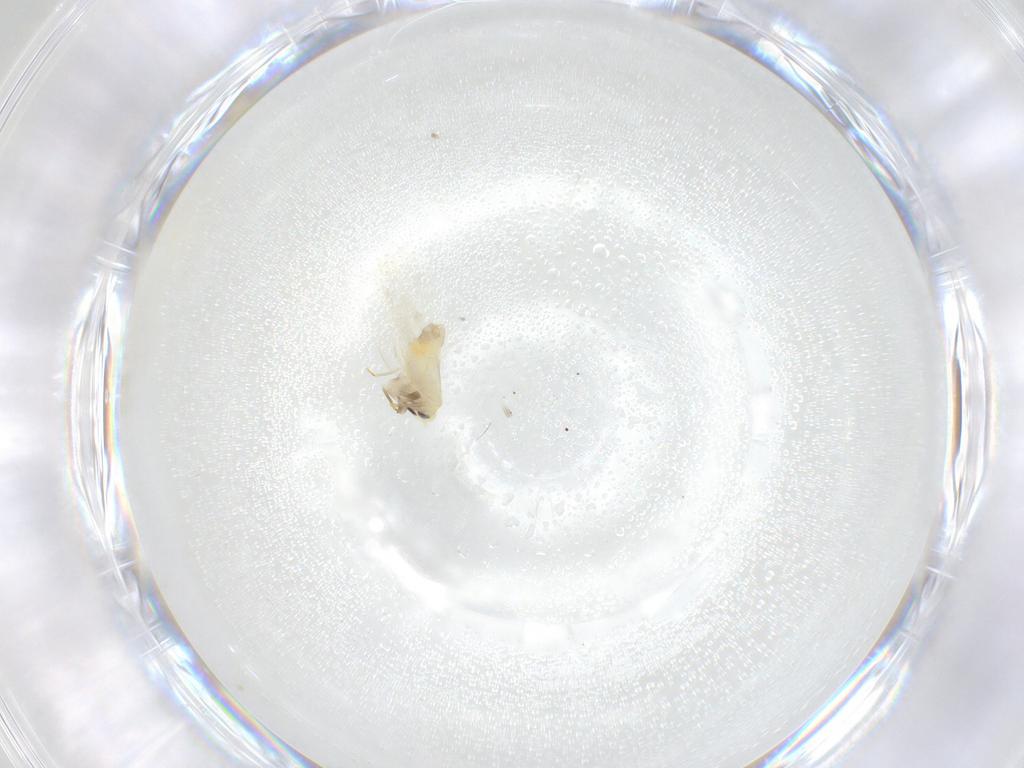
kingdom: Animalia
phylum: Arthropoda
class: Insecta
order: Hemiptera
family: Aleyrodidae
